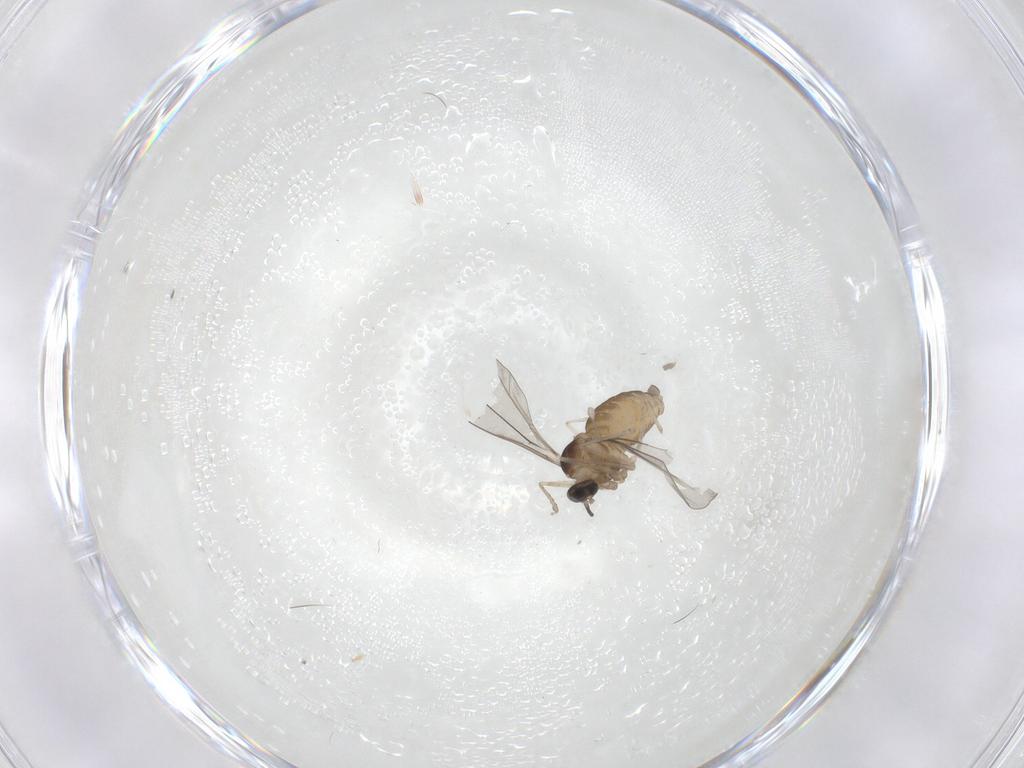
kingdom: Animalia
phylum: Arthropoda
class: Insecta
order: Diptera
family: Cecidomyiidae
